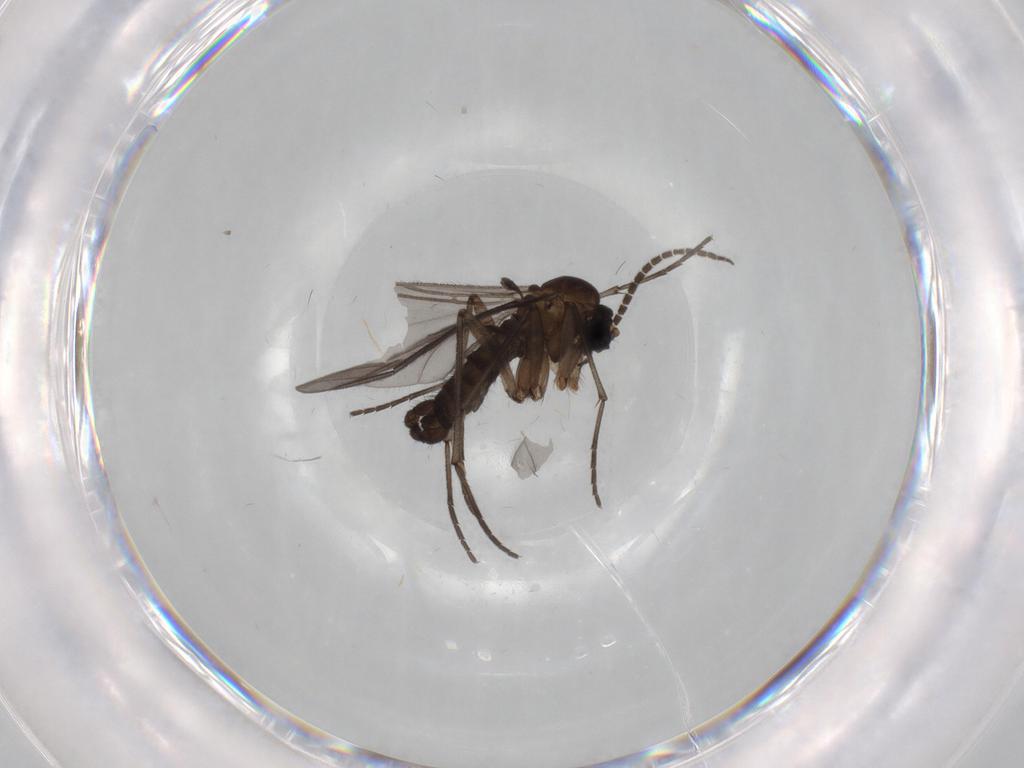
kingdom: Animalia
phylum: Arthropoda
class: Insecta
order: Diptera
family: Sciaridae
